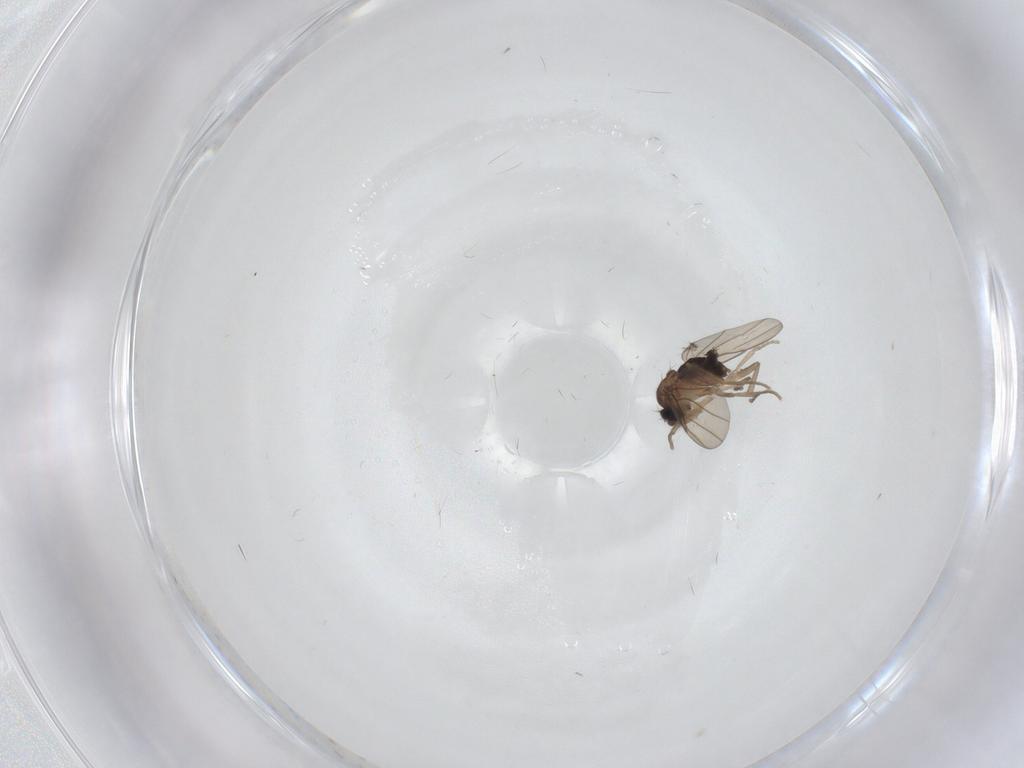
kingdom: Animalia
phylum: Arthropoda
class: Insecta
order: Diptera
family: Phoridae
